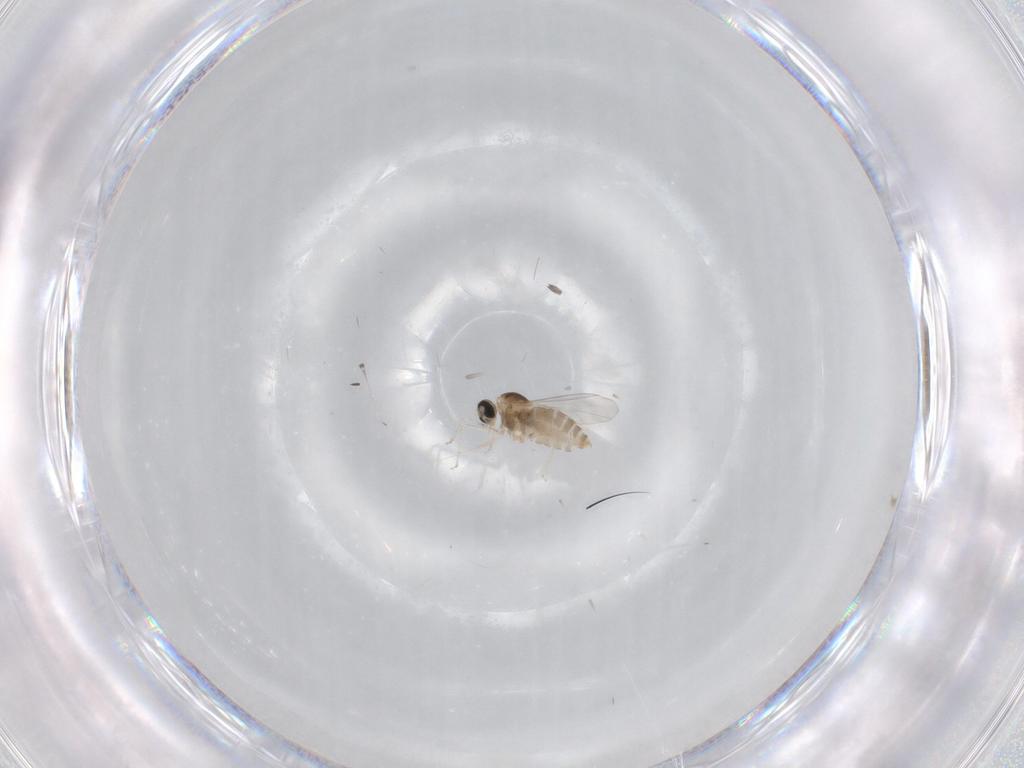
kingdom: Animalia
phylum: Arthropoda
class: Insecta
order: Diptera
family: Cecidomyiidae
